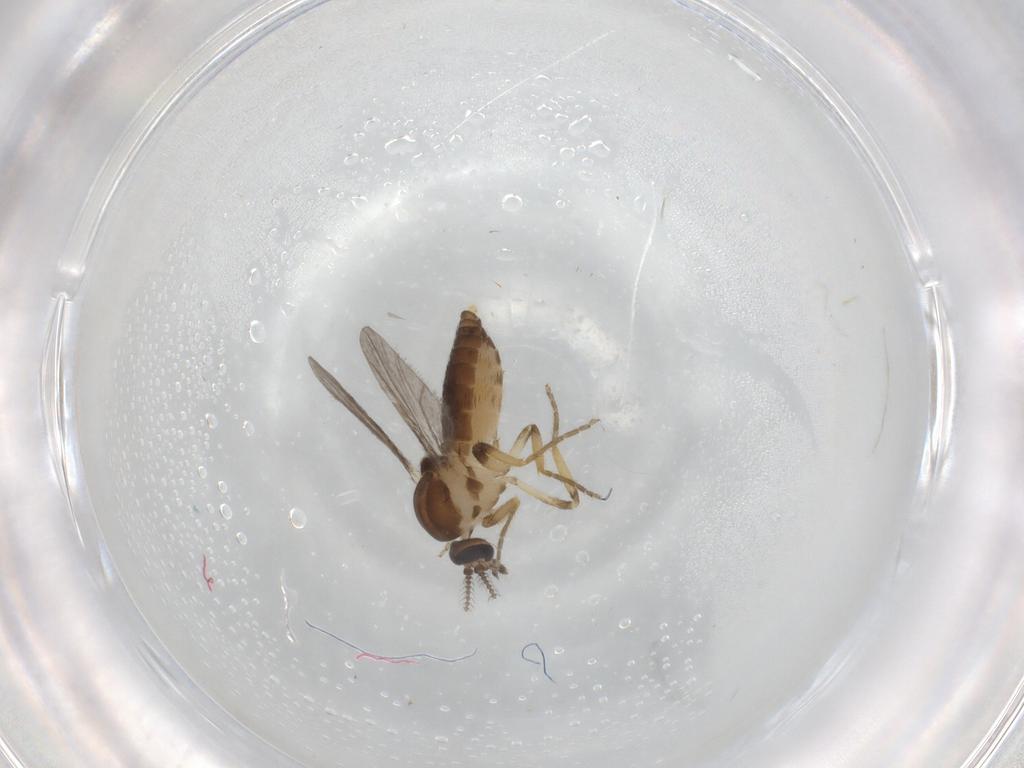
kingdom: Animalia
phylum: Arthropoda
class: Insecta
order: Diptera
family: Ceratopogonidae
